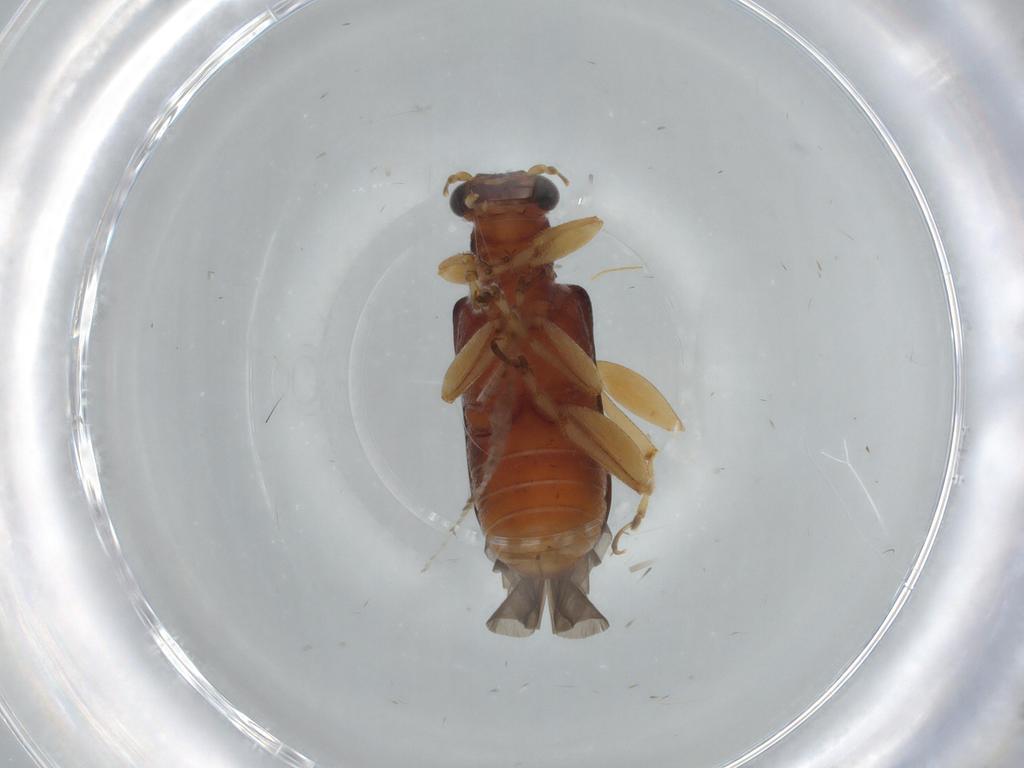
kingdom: Animalia
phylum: Arthropoda
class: Insecta
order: Coleoptera
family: Chrysomelidae
